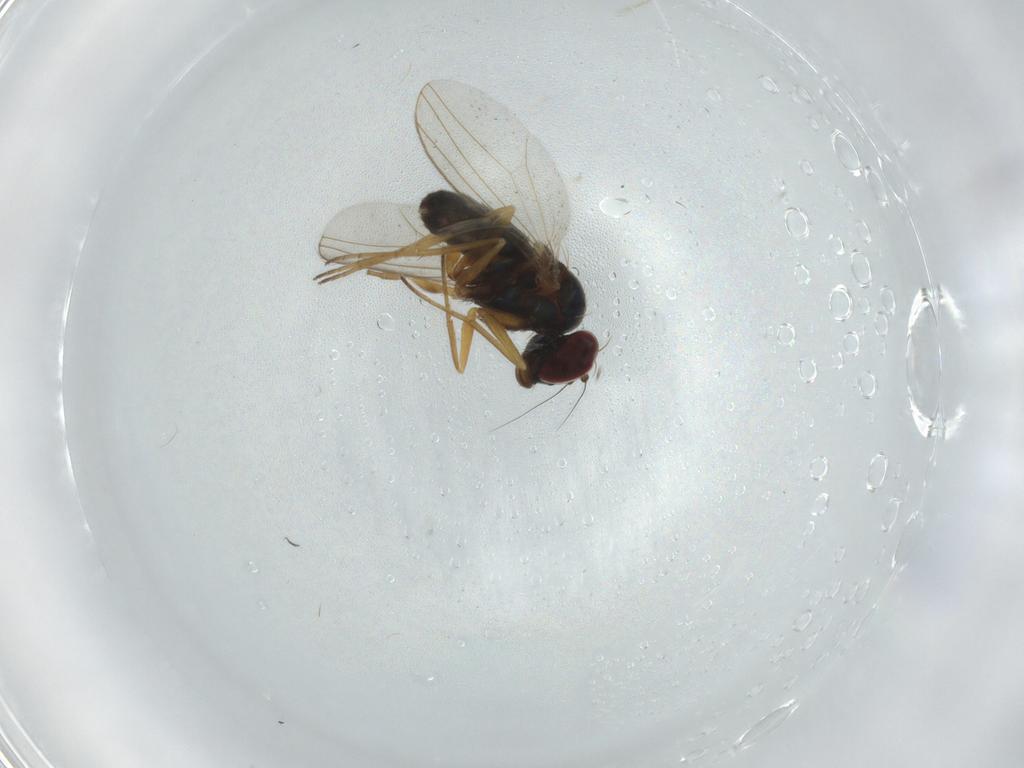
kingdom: Animalia
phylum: Arthropoda
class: Insecta
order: Diptera
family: Dolichopodidae
